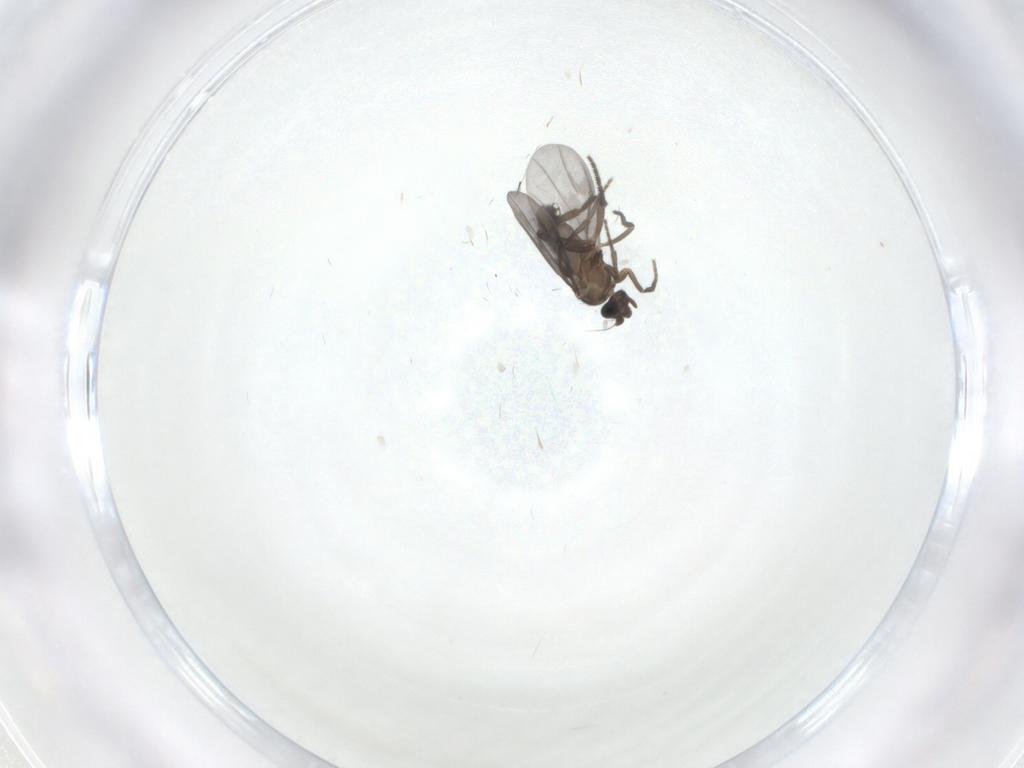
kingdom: Animalia
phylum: Arthropoda
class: Insecta
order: Diptera
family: Phoridae
